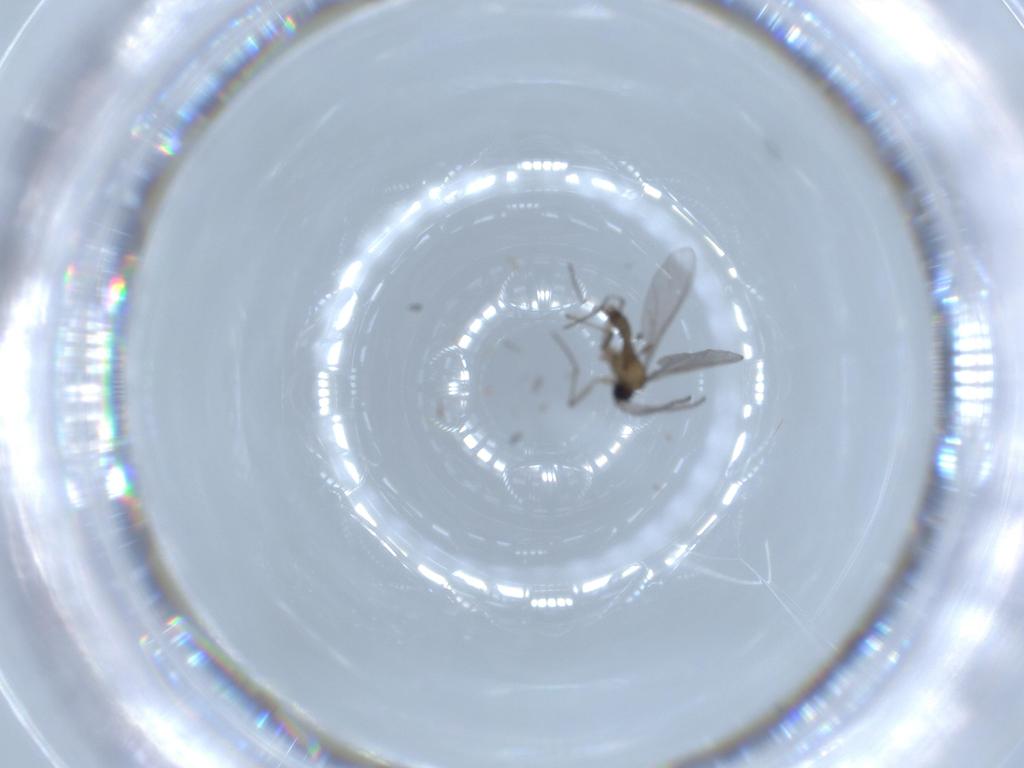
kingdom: Animalia
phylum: Arthropoda
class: Insecta
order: Diptera
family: Sciaridae
